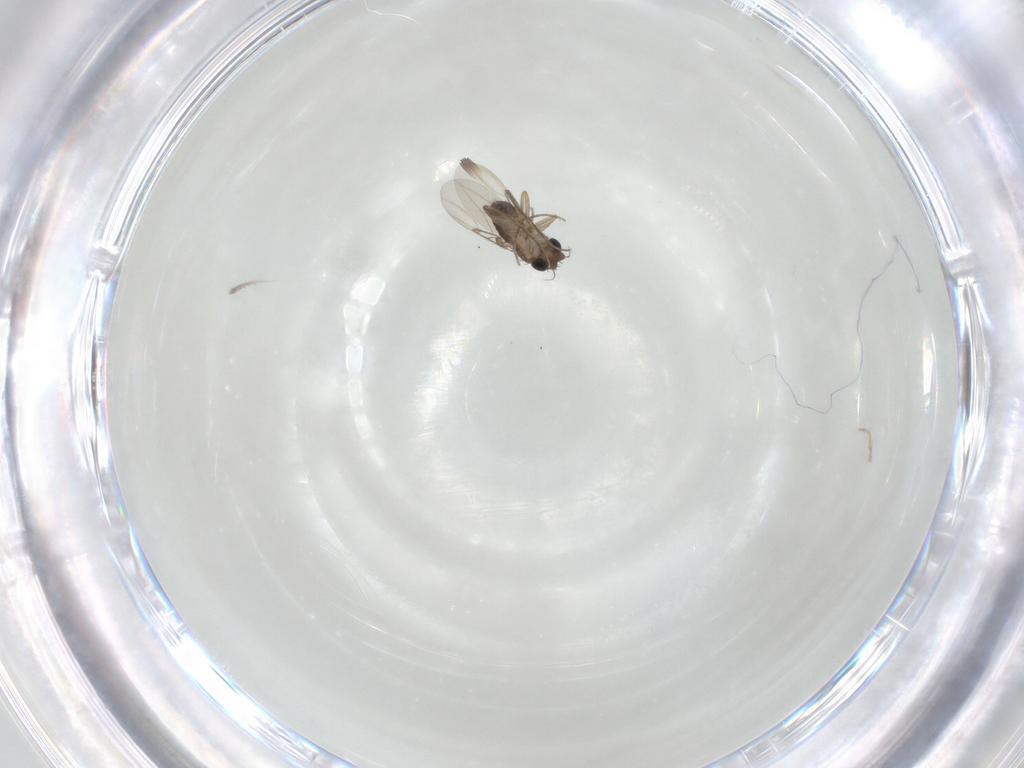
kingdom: Animalia
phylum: Arthropoda
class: Insecta
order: Diptera
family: Phoridae
